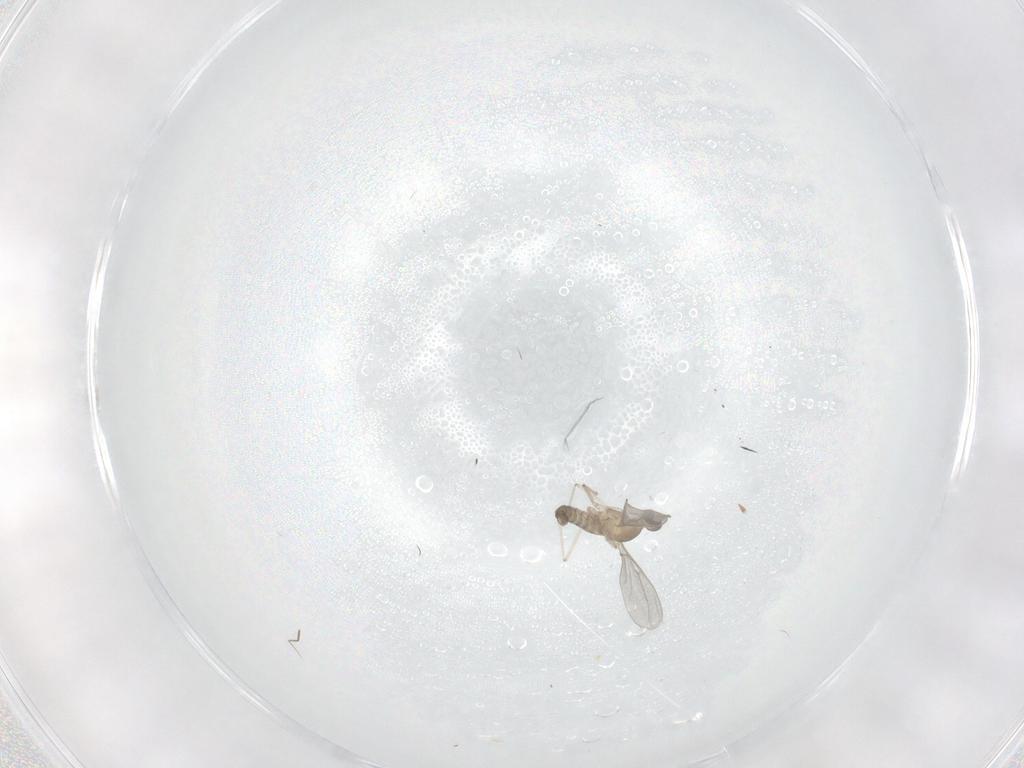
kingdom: Animalia
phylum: Arthropoda
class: Insecta
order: Diptera
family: Cecidomyiidae
